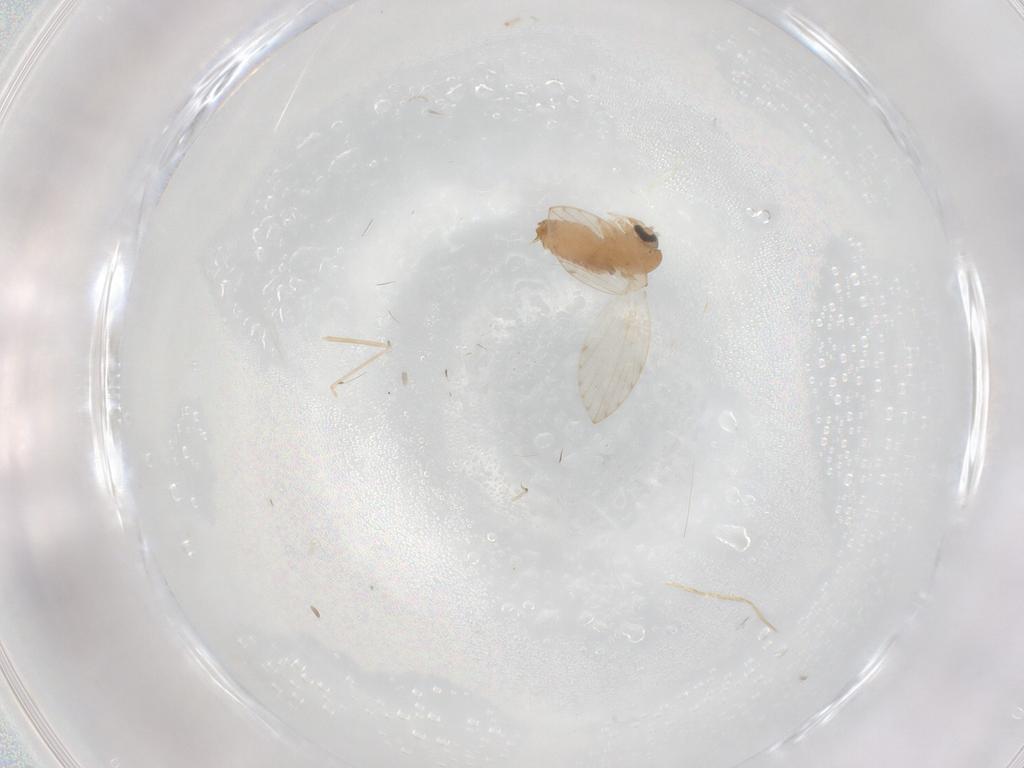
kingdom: Animalia
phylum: Arthropoda
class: Insecta
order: Diptera
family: Psychodidae
